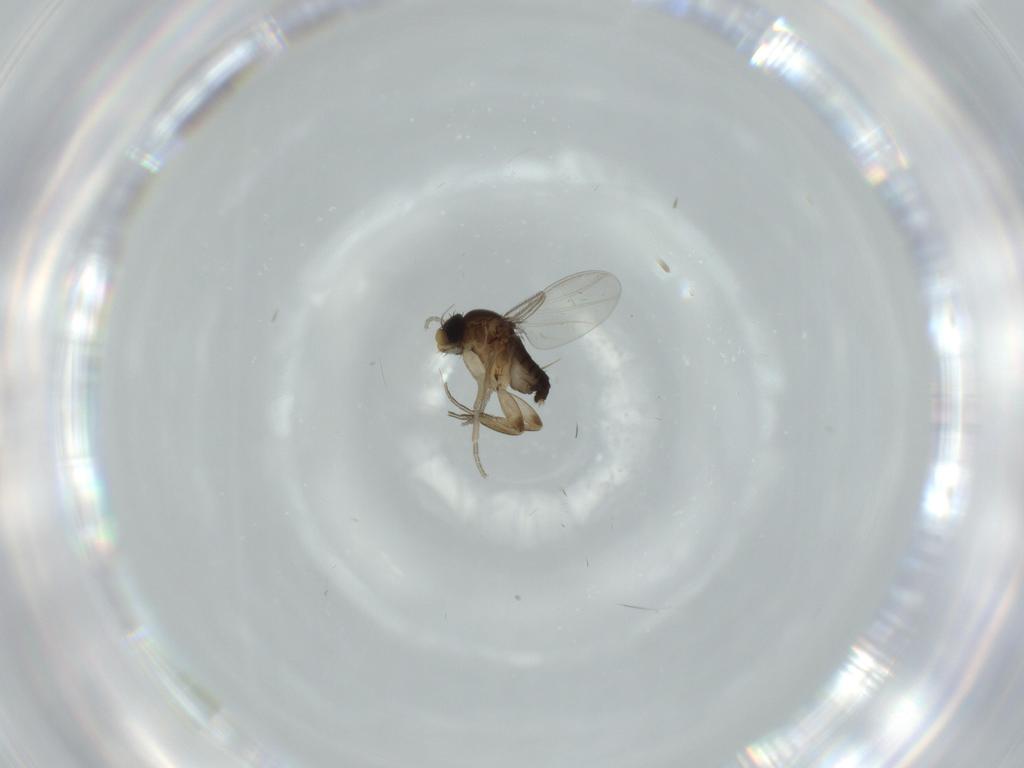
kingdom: Animalia
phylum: Arthropoda
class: Insecta
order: Diptera
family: Phoridae
